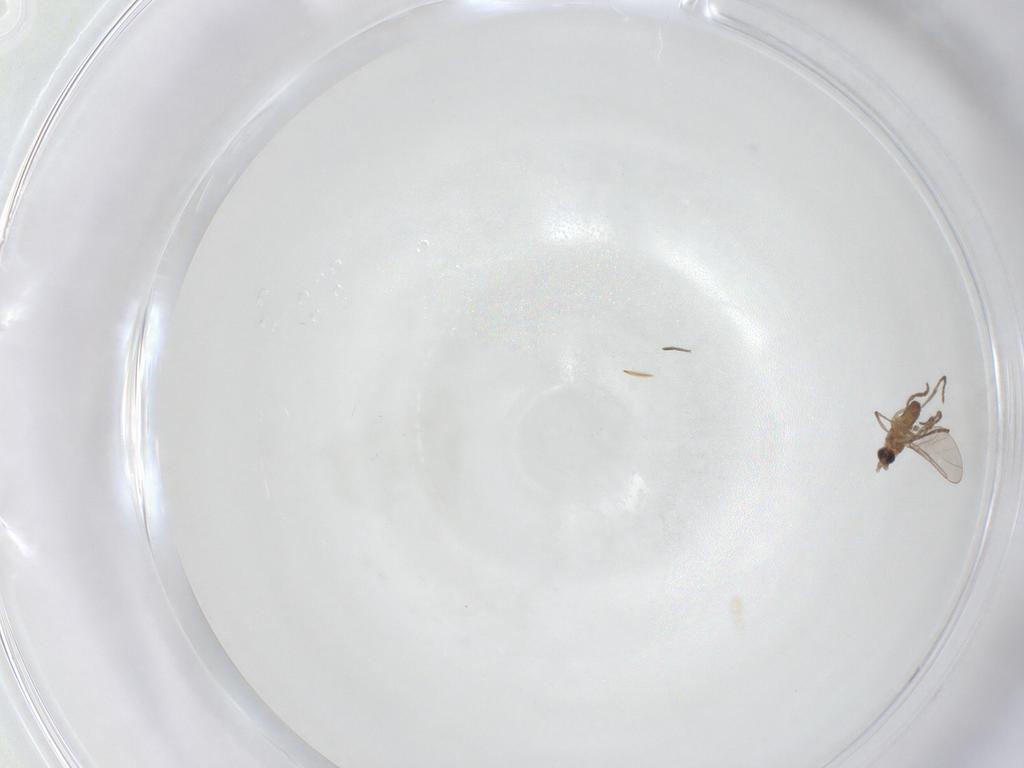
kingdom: Animalia
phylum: Arthropoda
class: Insecta
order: Diptera
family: Cecidomyiidae
